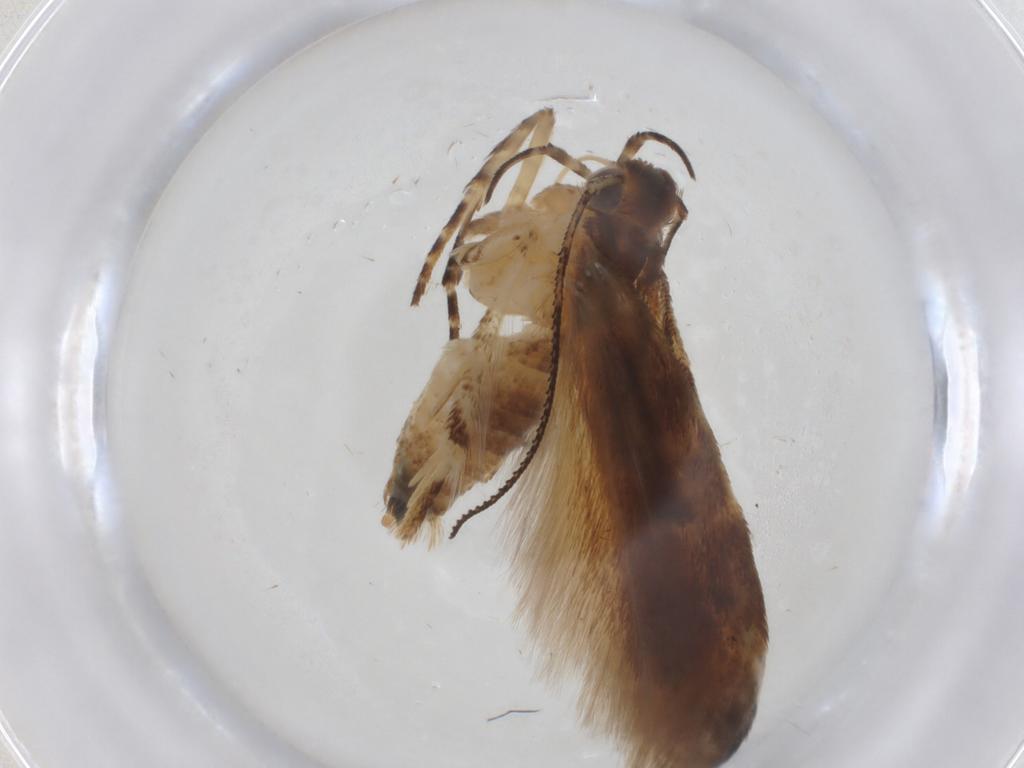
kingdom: Animalia
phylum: Arthropoda
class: Insecta
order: Lepidoptera
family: Gelechiidae
